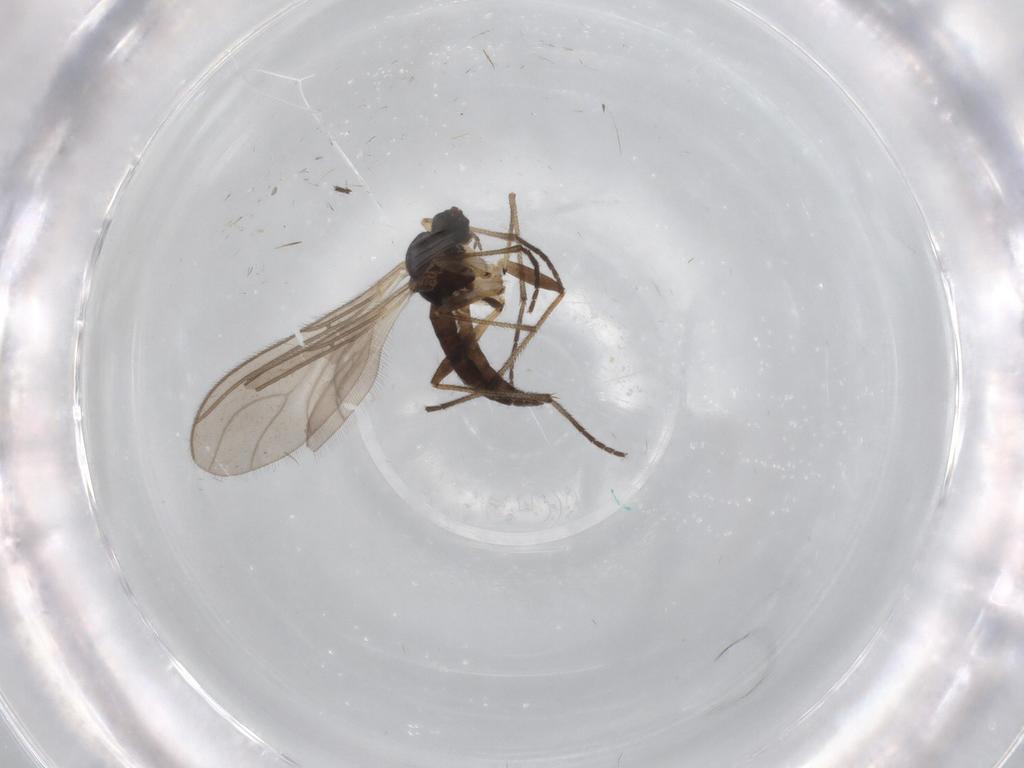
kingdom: Animalia
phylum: Arthropoda
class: Insecta
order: Diptera
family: Sciaridae
